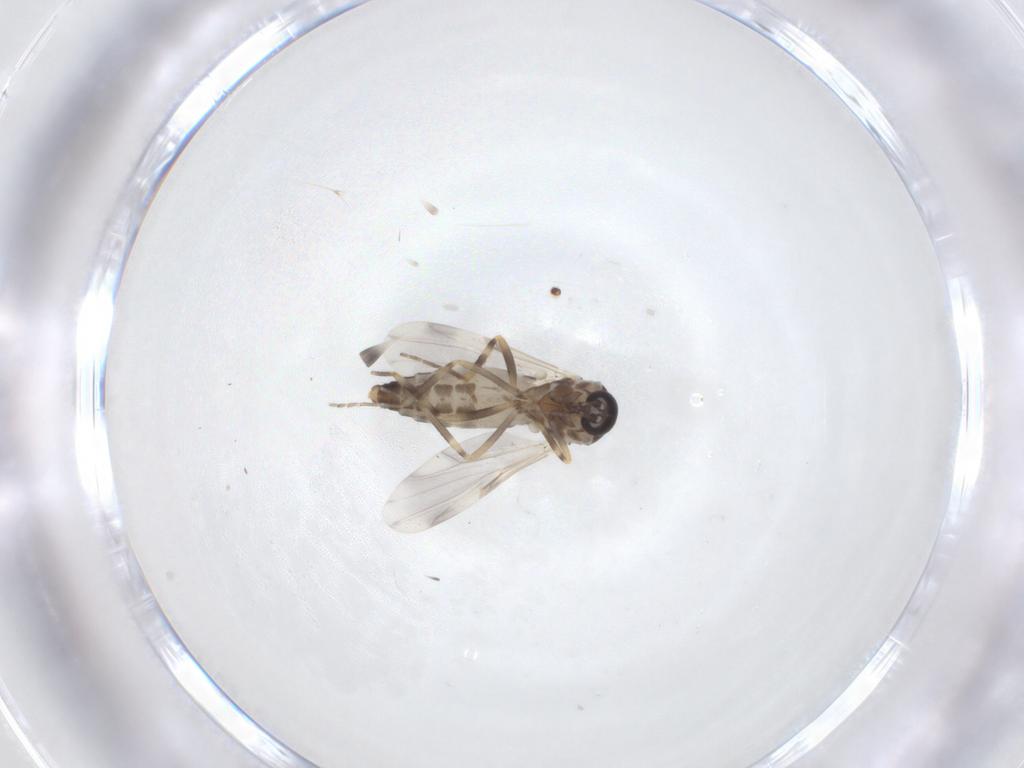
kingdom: Animalia
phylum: Arthropoda
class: Insecta
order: Diptera
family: Ceratopogonidae
